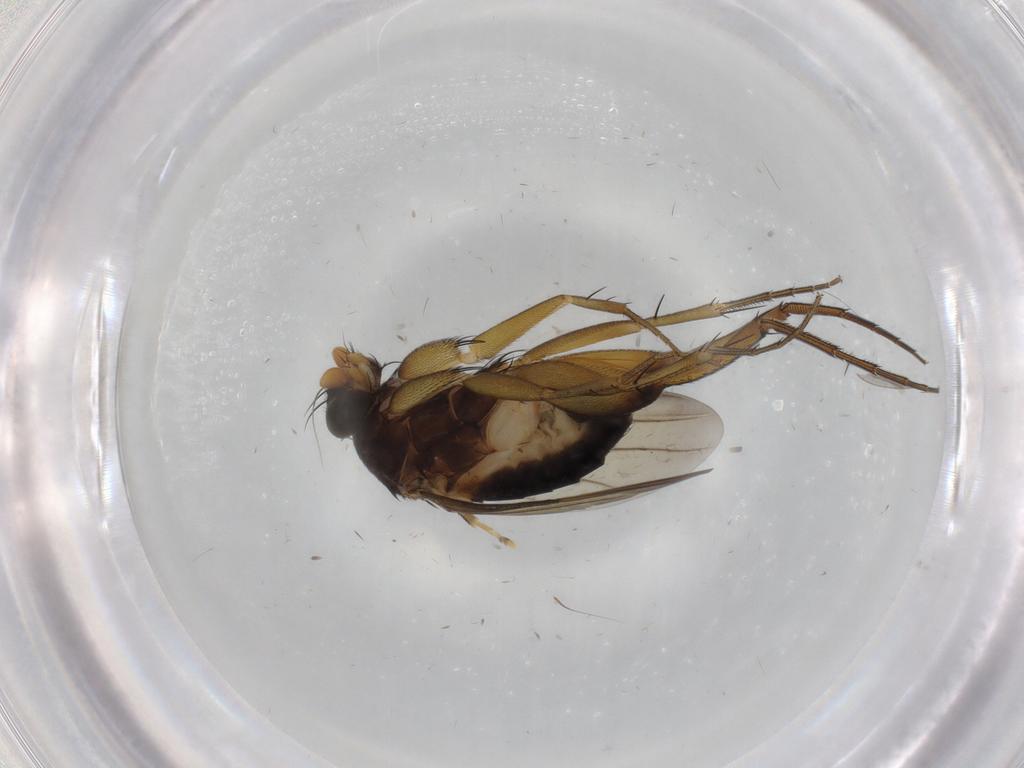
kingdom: Animalia
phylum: Arthropoda
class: Insecta
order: Diptera
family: Phoridae
